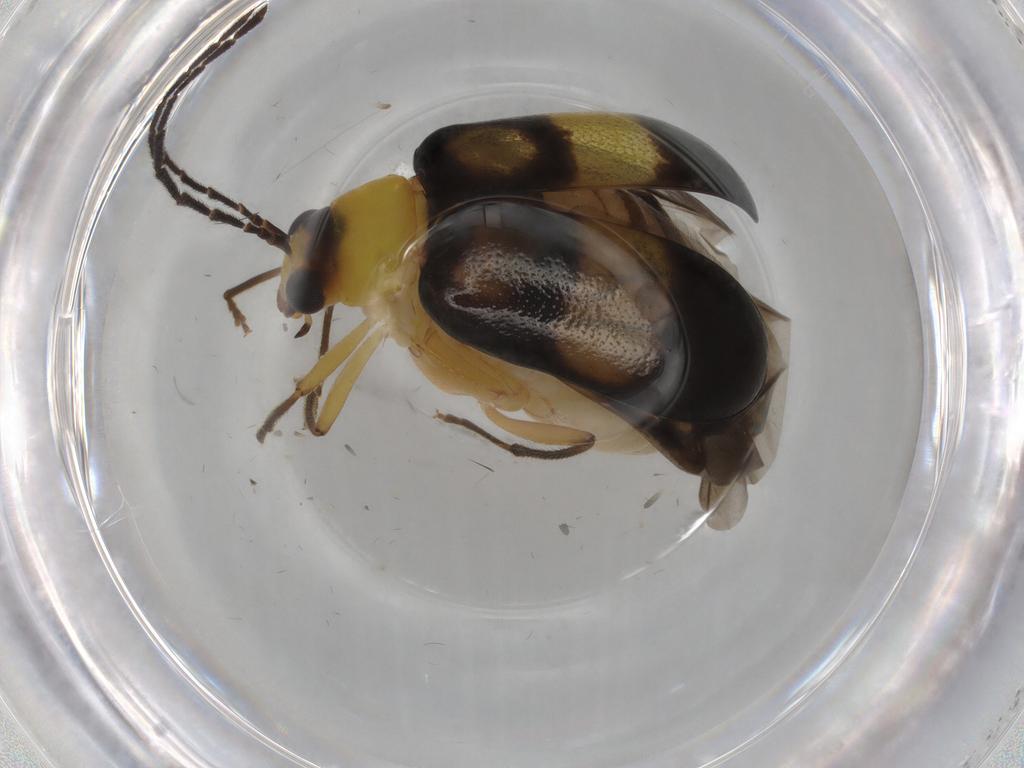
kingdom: Animalia
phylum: Arthropoda
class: Insecta
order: Coleoptera
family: Chrysomelidae
